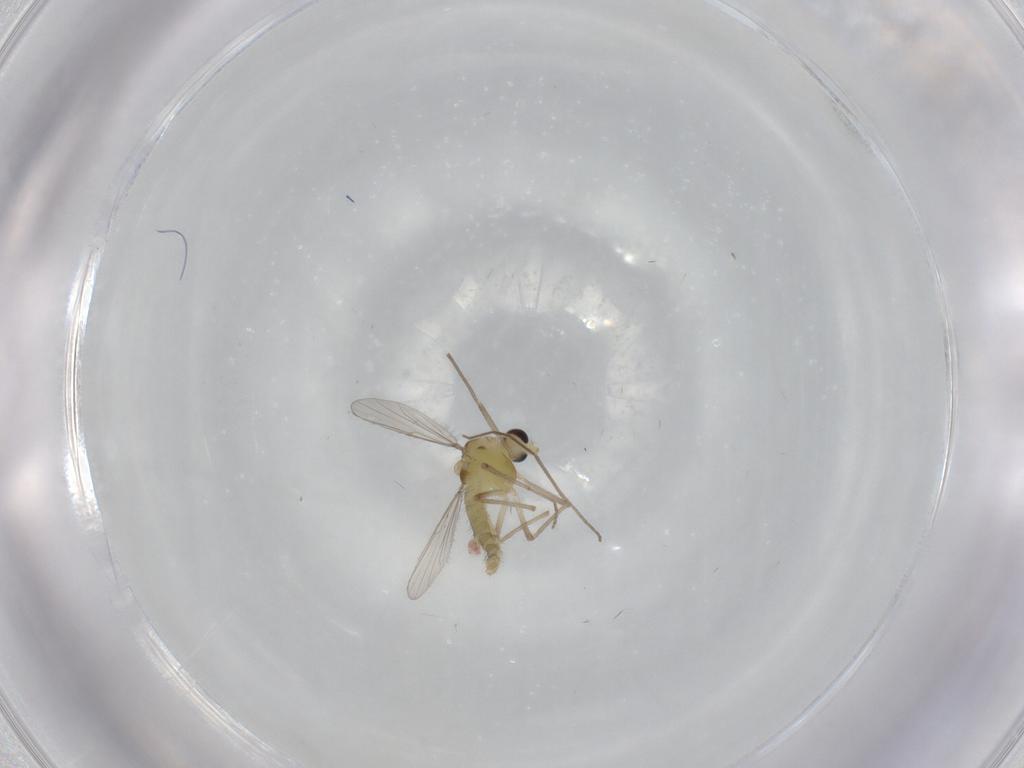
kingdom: Animalia
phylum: Arthropoda
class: Insecta
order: Diptera
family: Chironomidae
